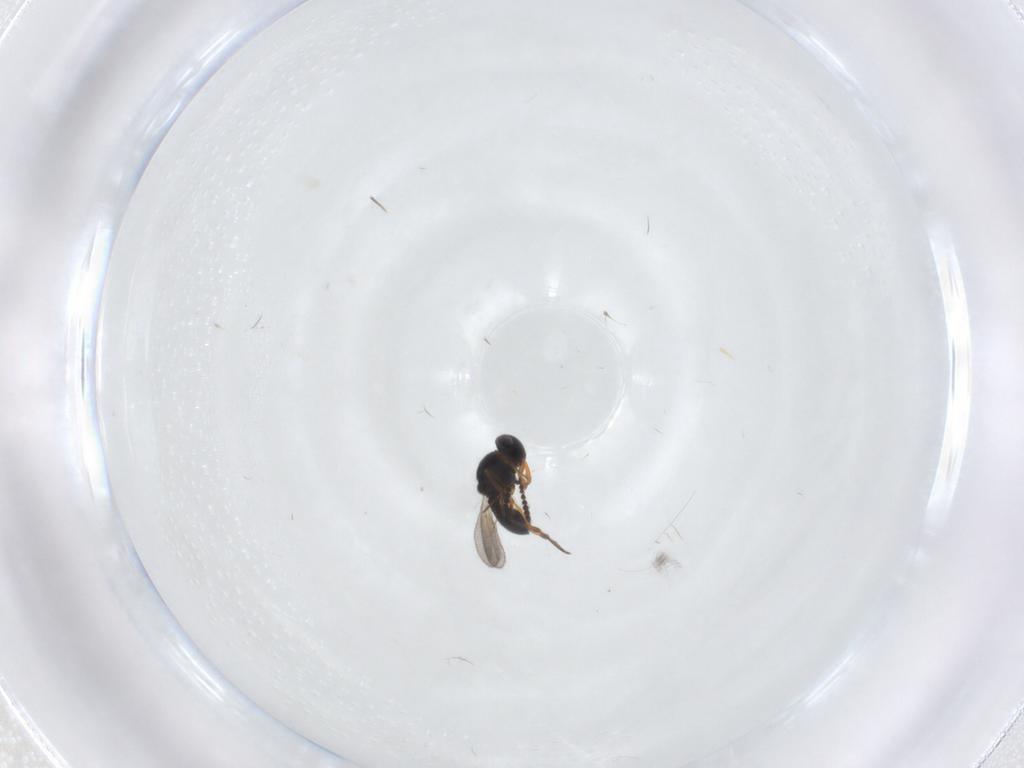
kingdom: Animalia
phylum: Arthropoda
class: Insecta
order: Hymenoptera
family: Platygastridae
